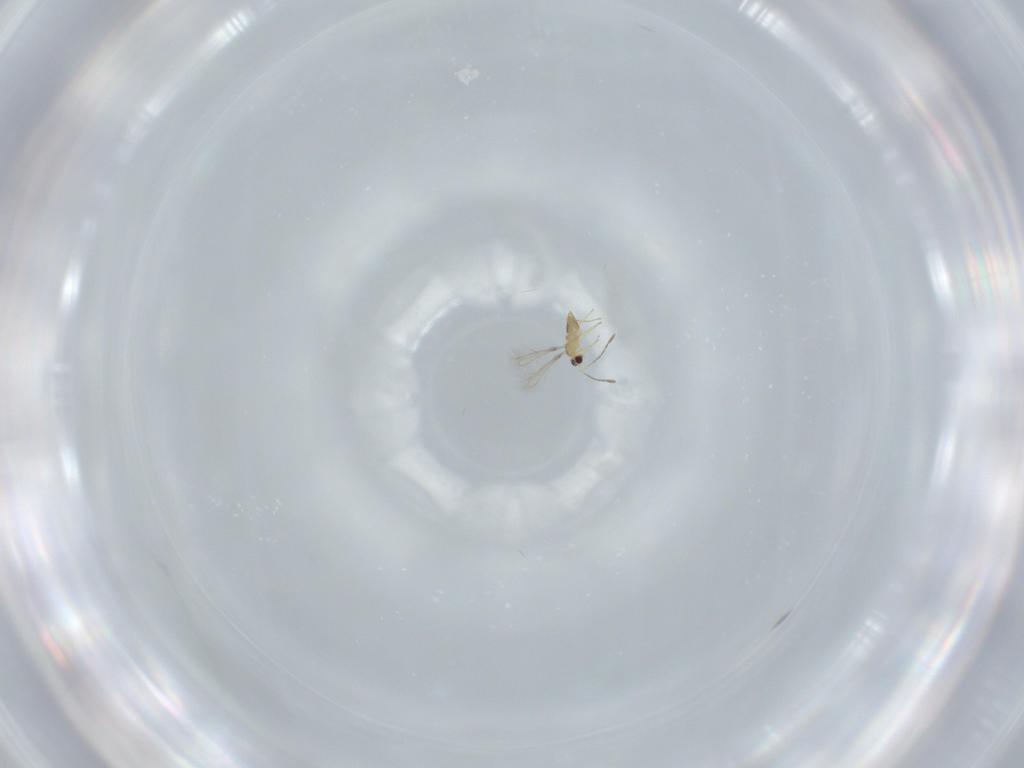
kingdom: Animalia
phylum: Arthropoda
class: Insecta
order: Hymenoptera
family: Mymaridae
